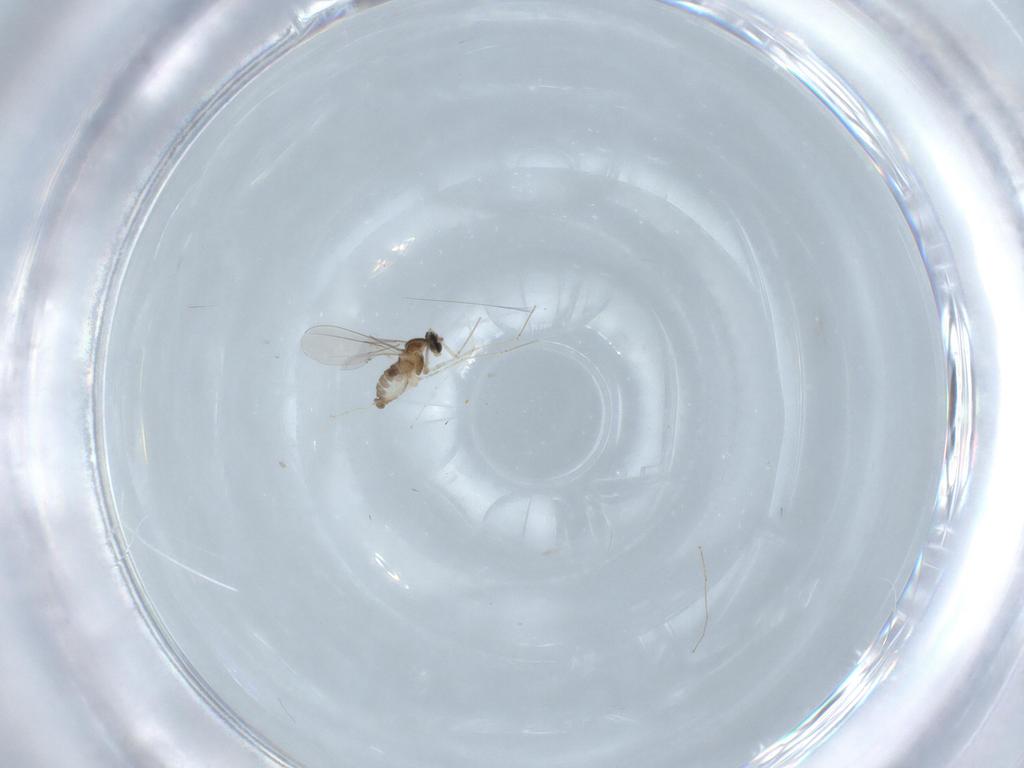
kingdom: Animalia
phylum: Arthropoda
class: Insecta
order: Diptera
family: Cecidomyiidae
